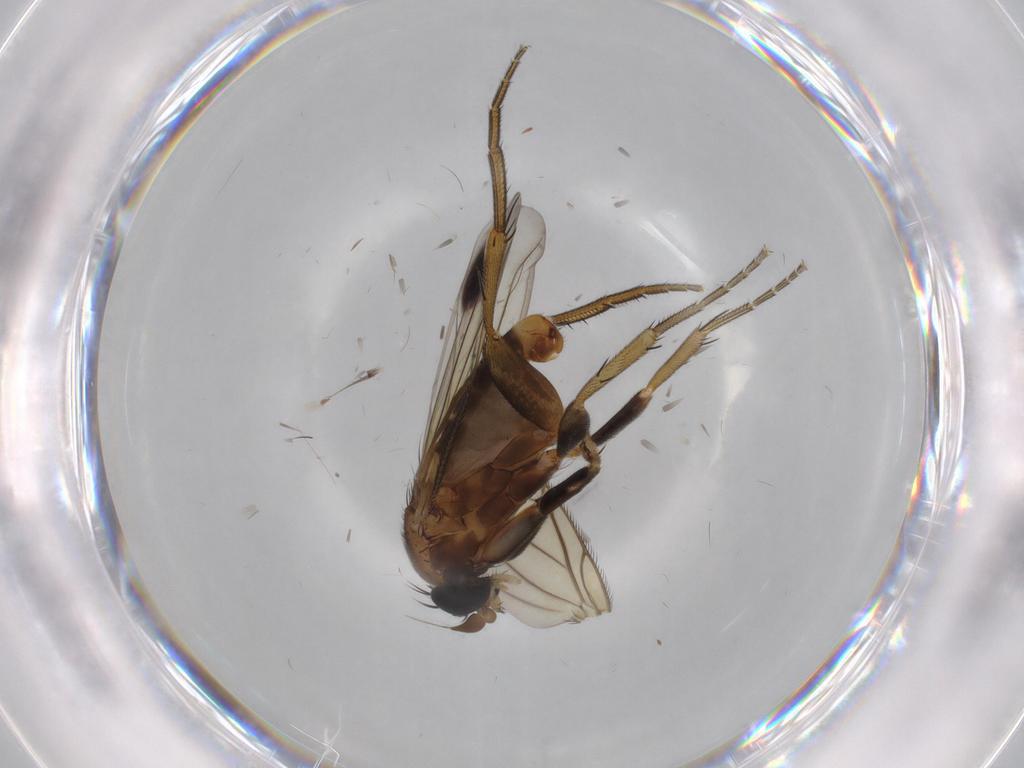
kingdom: Animalia
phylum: Arthropoda
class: Insecta
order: Diptera
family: Phoridae
